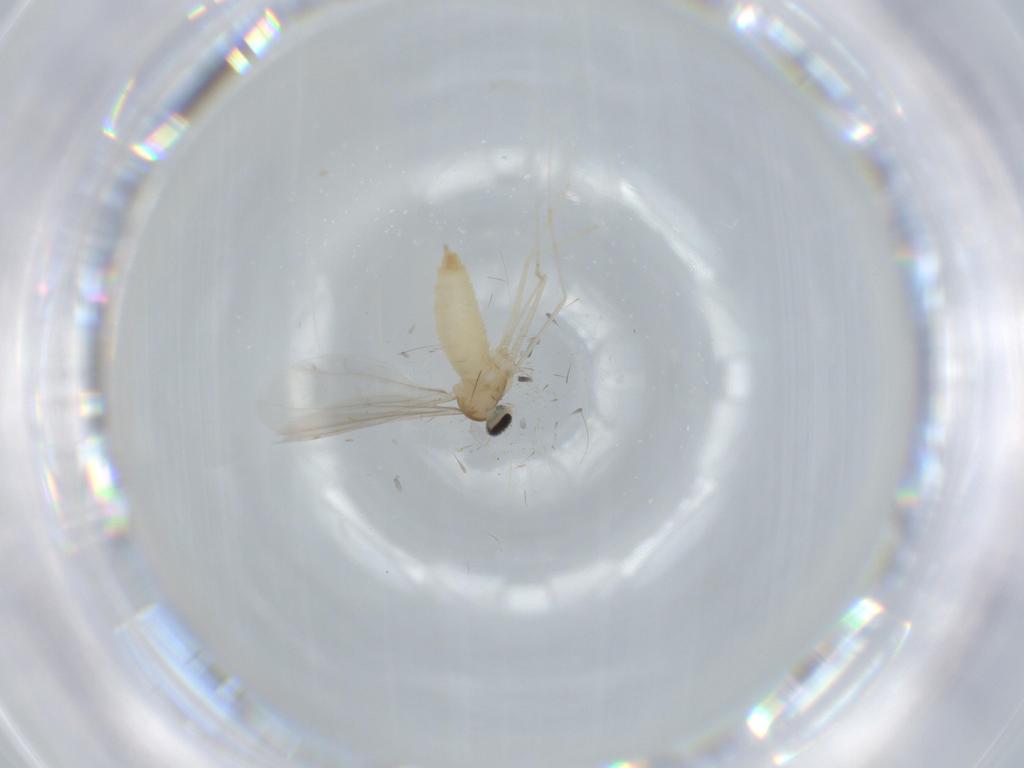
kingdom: Animalia
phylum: Arthropoda
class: Insecta
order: Diptera
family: Cecidomyiidae
